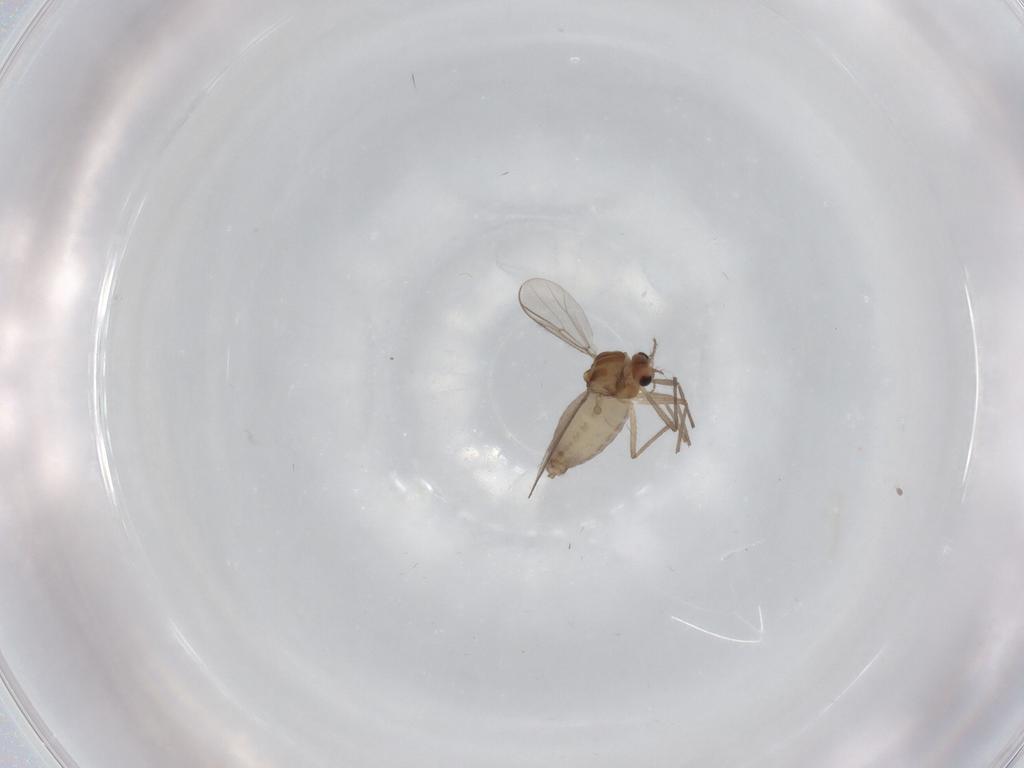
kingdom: Animalia
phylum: Arthropoda
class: Insecta
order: Diptera
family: Chironomidae
